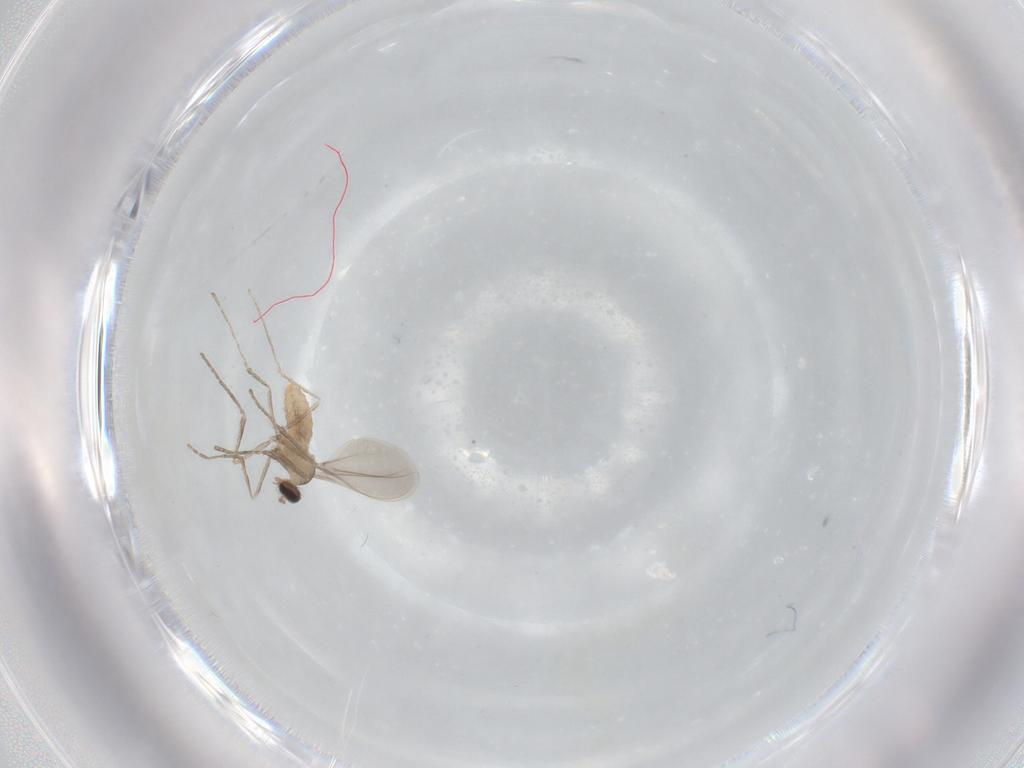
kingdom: Animalia
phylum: Arthropoda
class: Insecta
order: Diptera
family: Cecidomyiidae
